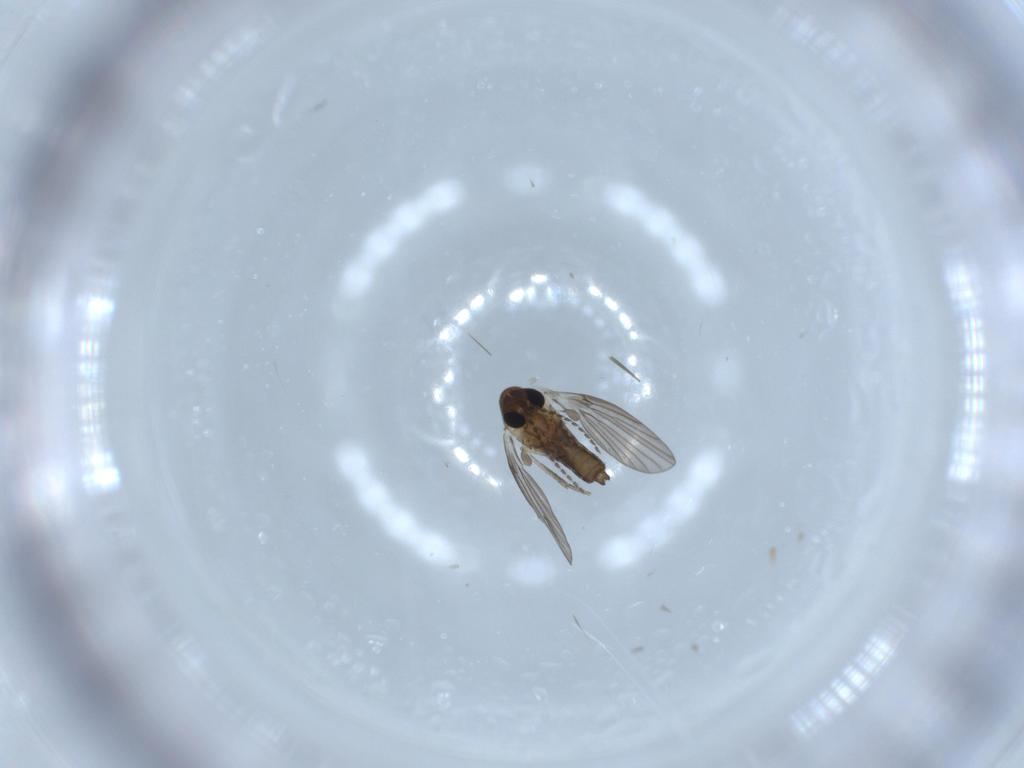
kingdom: Animalia
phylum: Arthropoda
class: Insecta
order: Diptera
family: Psychodidae
